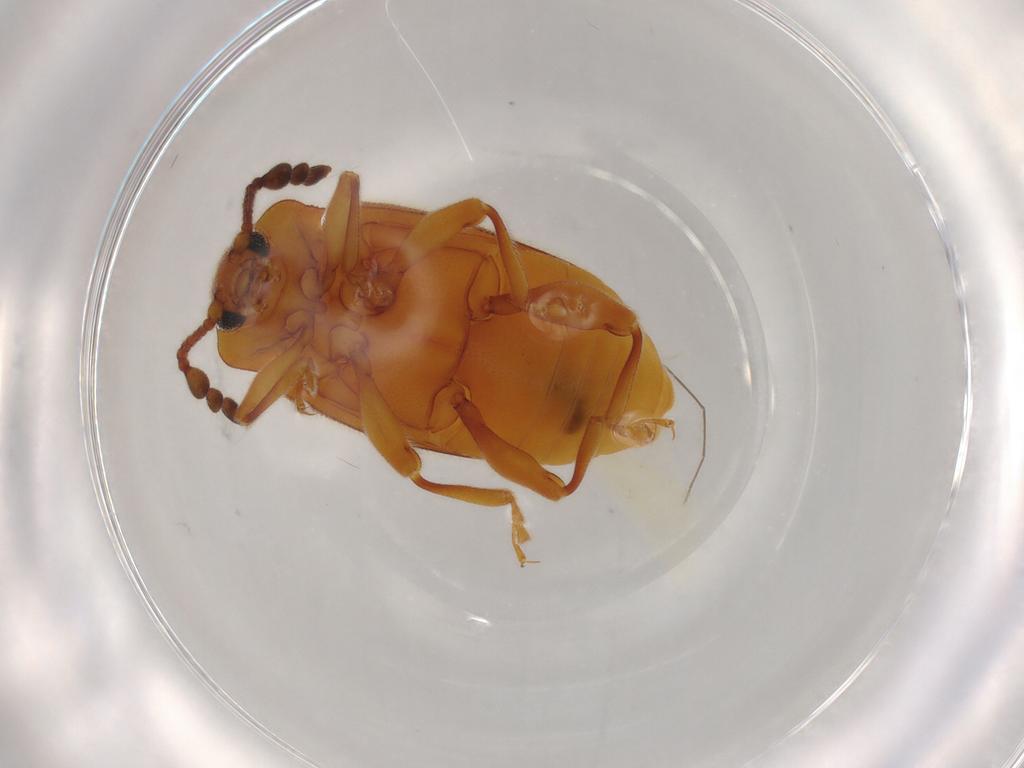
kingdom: Animalia
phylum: Arthropoda
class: Insecta
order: Coleoptera
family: Endomychidae
